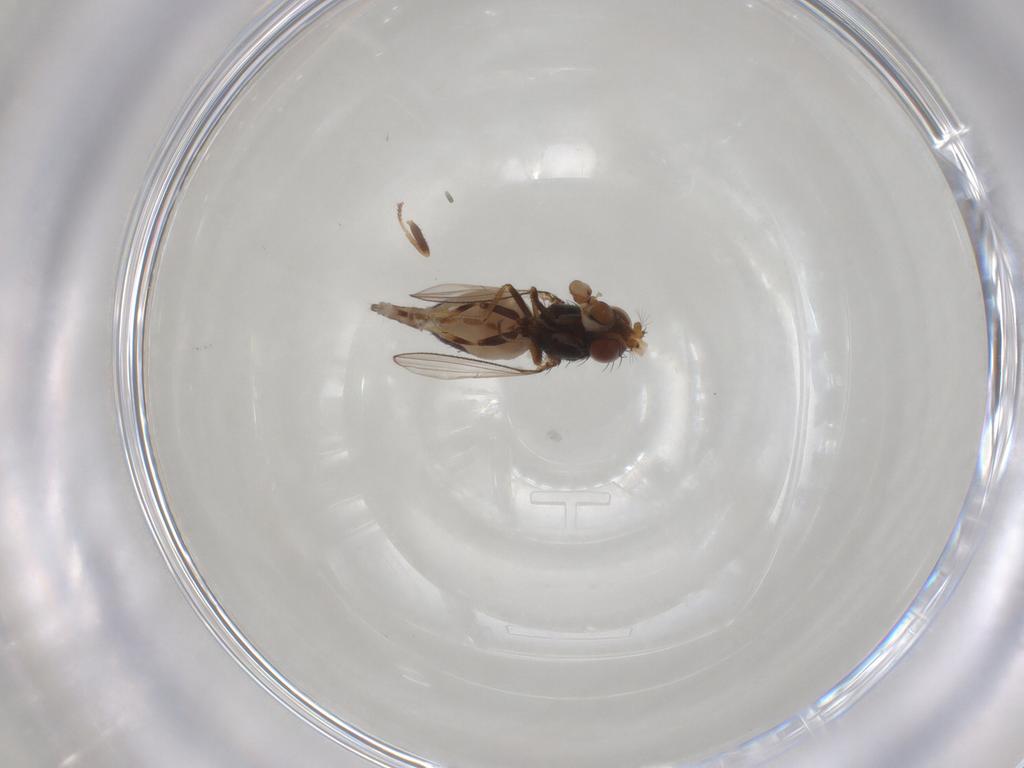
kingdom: Animalia
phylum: Arthropoda
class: Insecta
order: Diptera
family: Ephydridae
